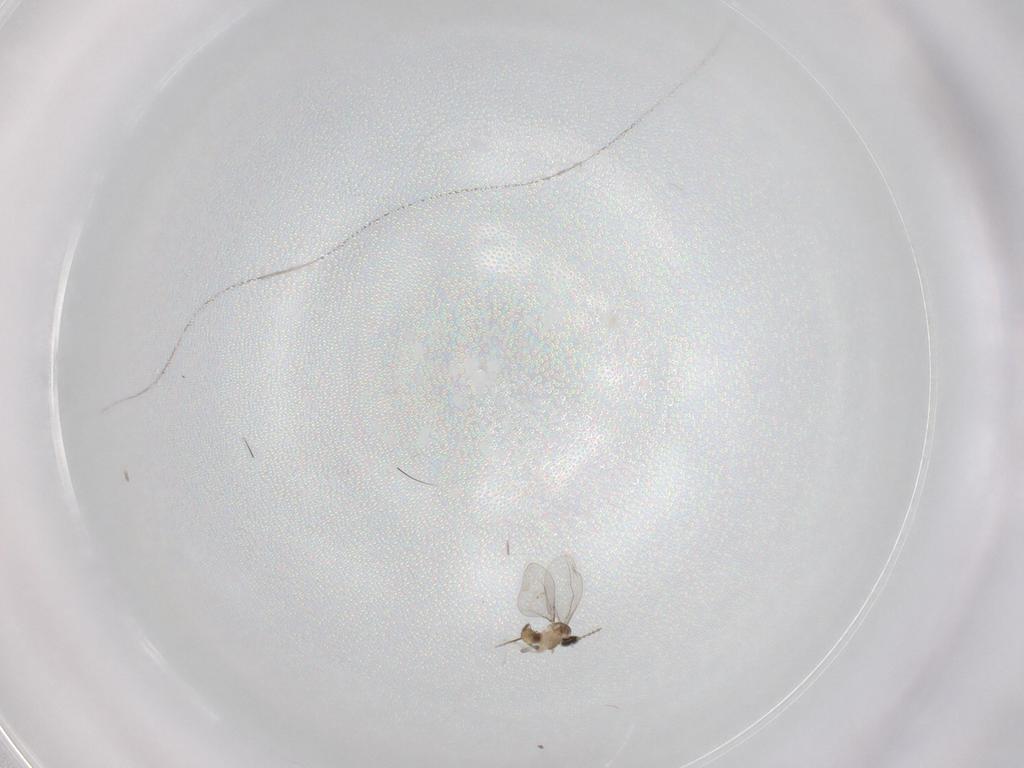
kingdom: Animalia
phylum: Arthropoda
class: Insecta
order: Diptera
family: Cecidomyiidae
